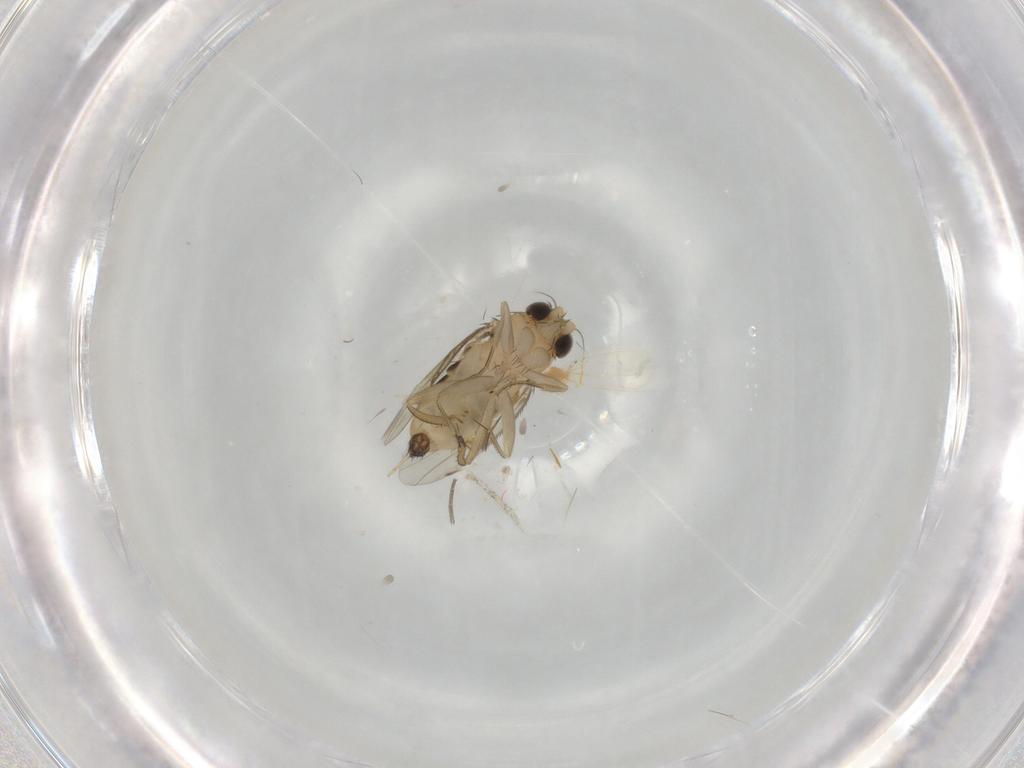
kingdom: Animalia
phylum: Arthropoda
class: Insecta
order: Diptera
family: Phoridae
